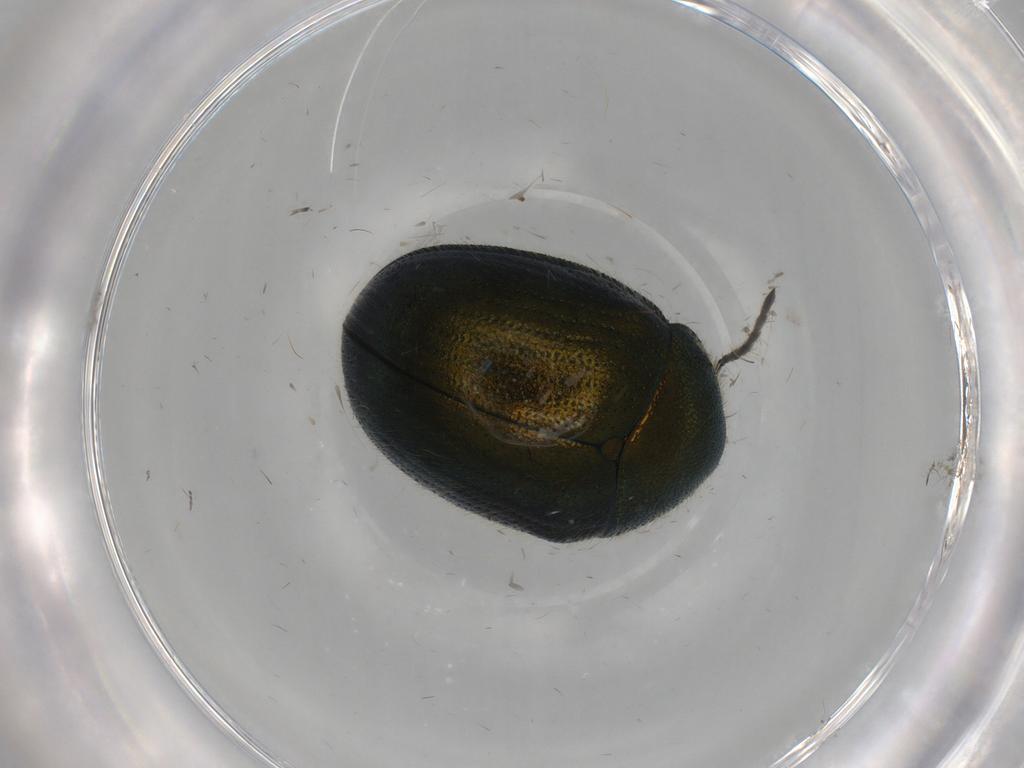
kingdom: Animalia
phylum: Arthropoda
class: Insecta
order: Coleoptera
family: Chrysomelidae
